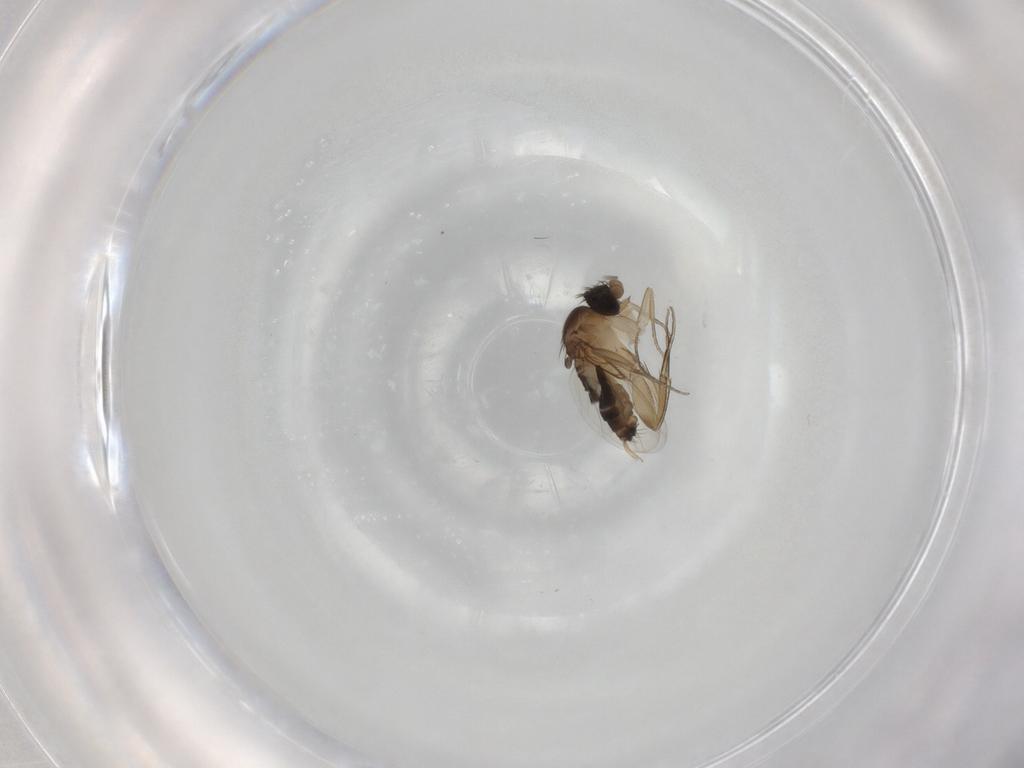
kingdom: Animalia
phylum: Arthropoda
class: Insecta
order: Diptera
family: Phoridae
